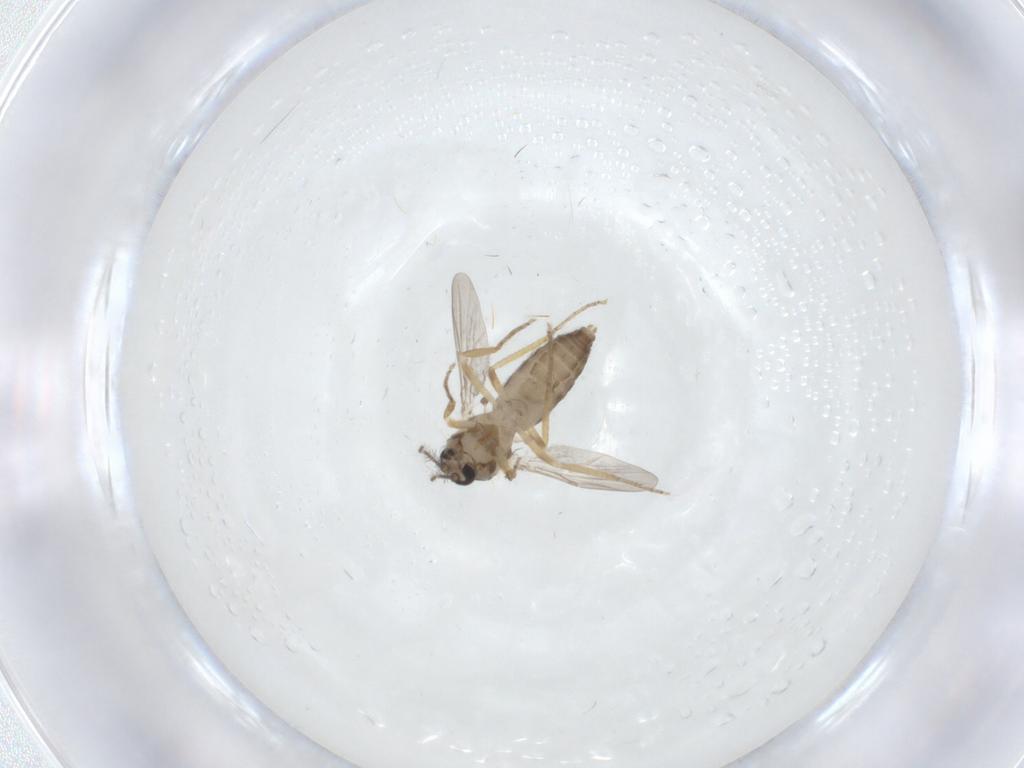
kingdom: Animalia
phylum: Arthropoda
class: Insecta
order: Diptera
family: Ceratopogonidae
